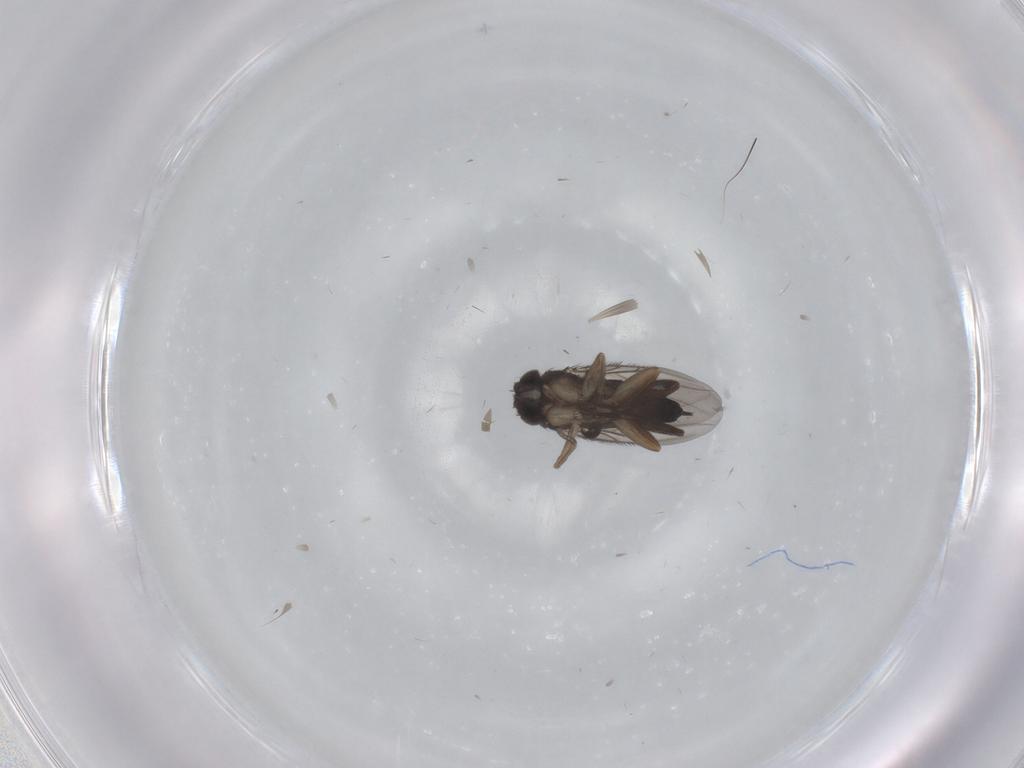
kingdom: Animalia
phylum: Arthropoda
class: Insecta
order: Diptera
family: Phoridae
